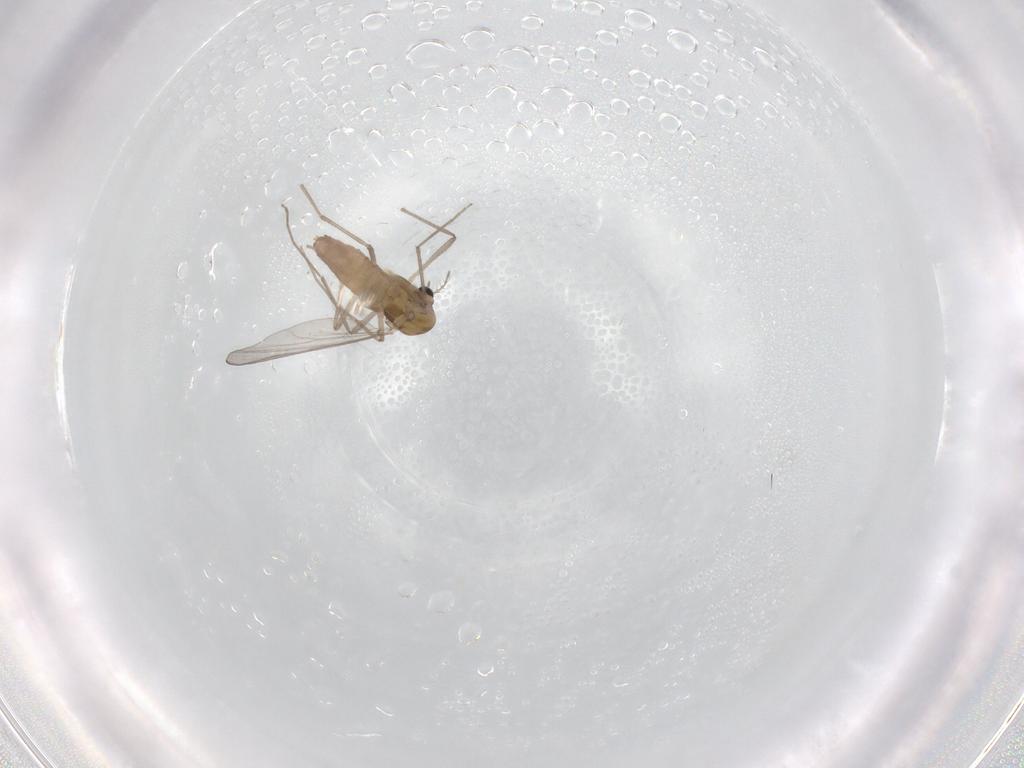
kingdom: Animalia
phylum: Arthropoda
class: Insecta
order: Diptera
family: Chironomidae
